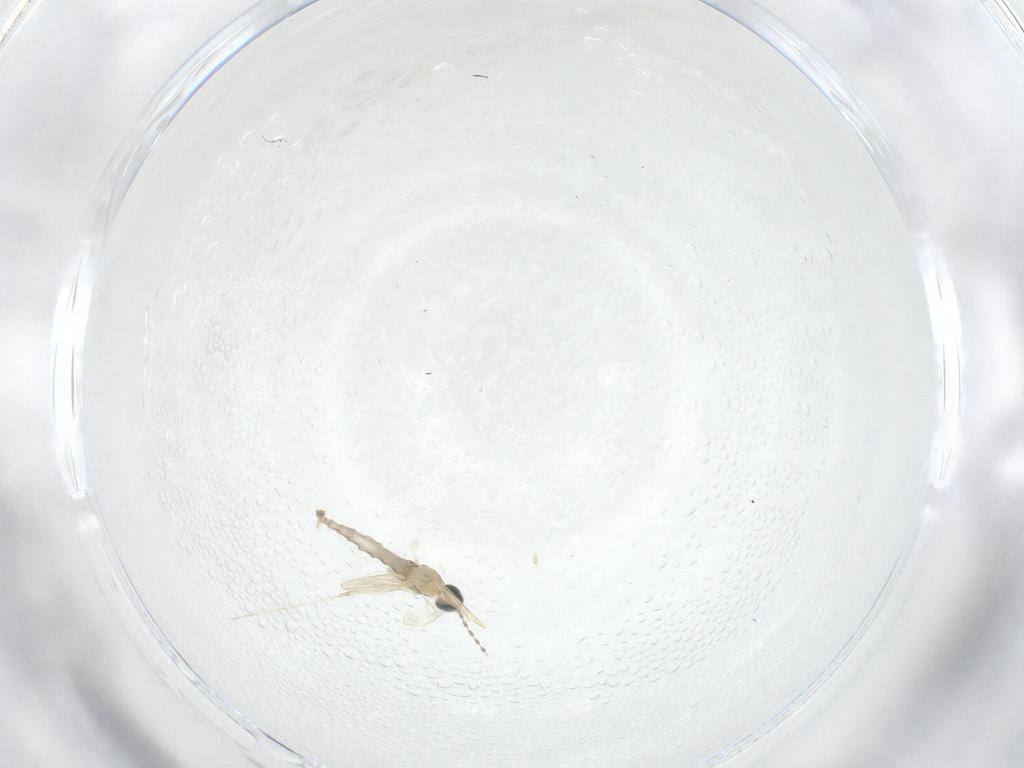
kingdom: Animalia
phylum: Arthropoda
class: Insecta
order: Diptera
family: Cecidomyiidae
